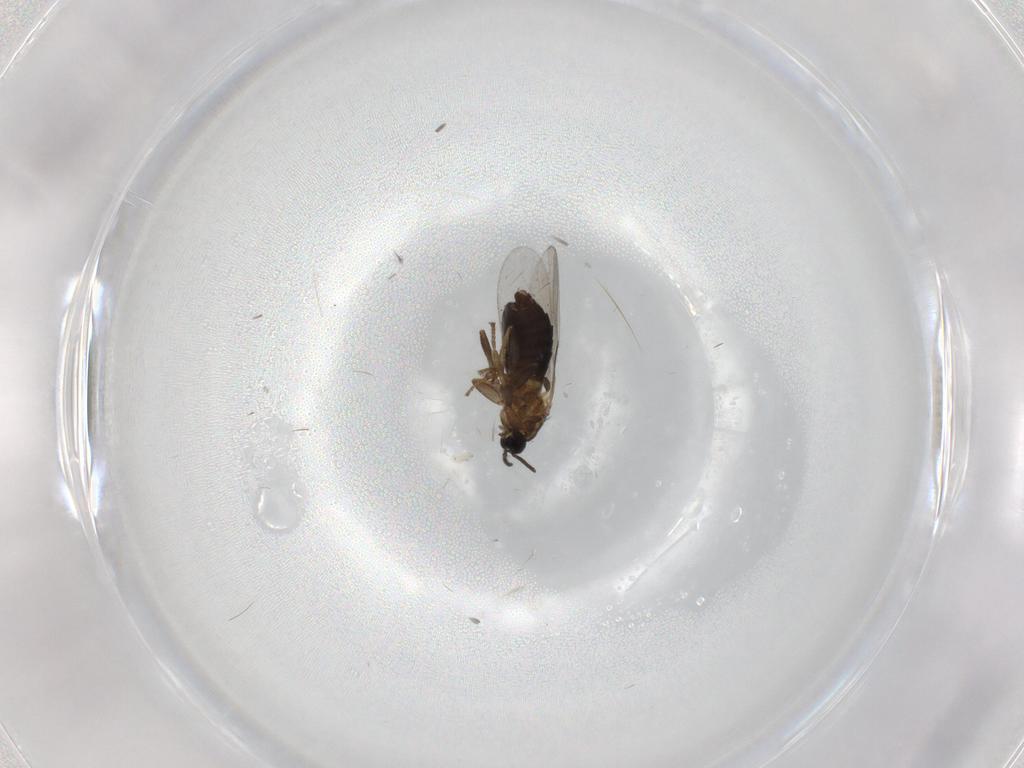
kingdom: Animalia
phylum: Arthropoda
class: Insecta
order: Diptera
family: Scatopsidae
